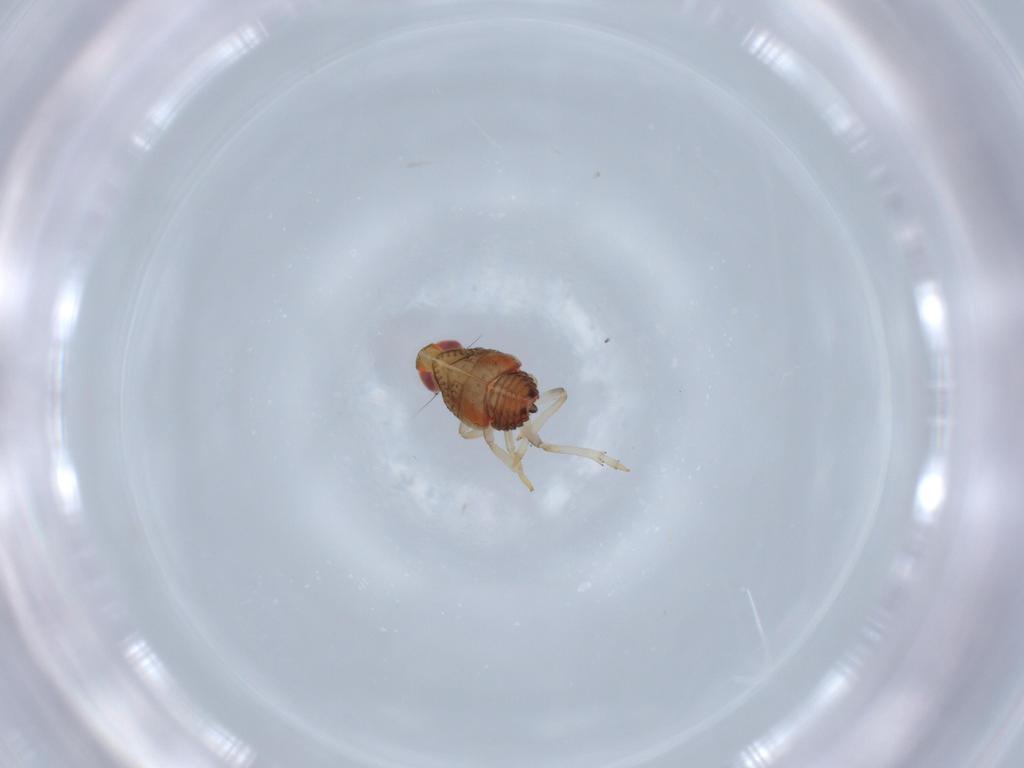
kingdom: Animalia
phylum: Arthropoda
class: Insecta
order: Hemiptera
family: Issidae
